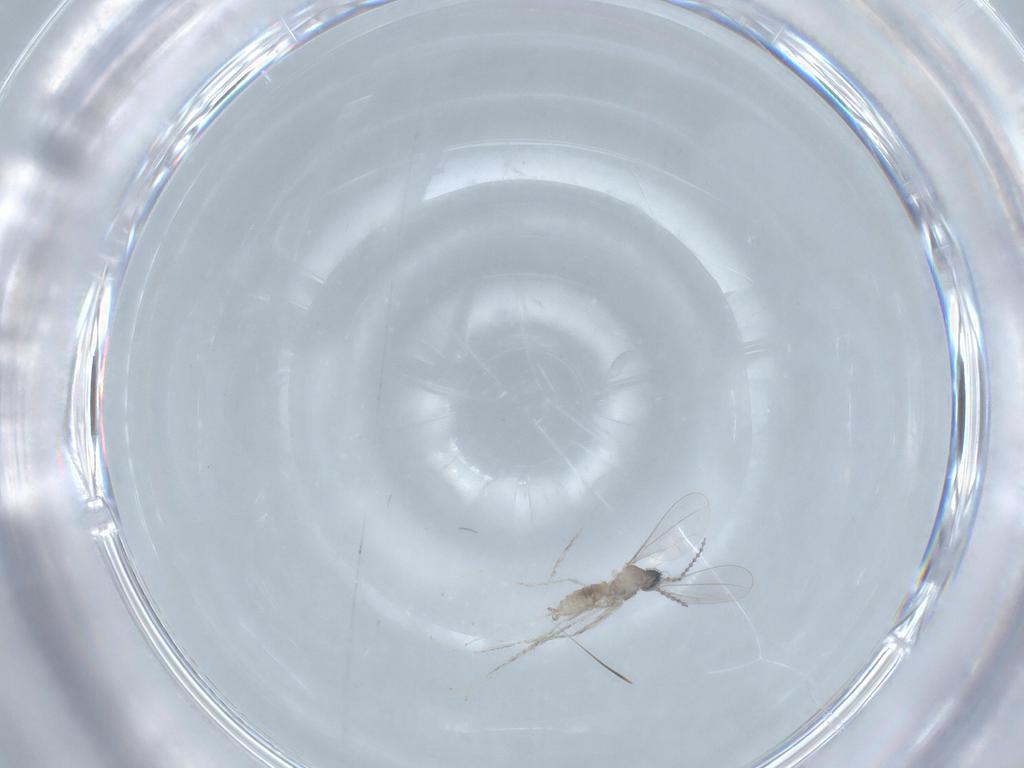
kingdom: Animalia
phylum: Arthropoda
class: Insecta
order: Diptera
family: Cecidomyiidae
